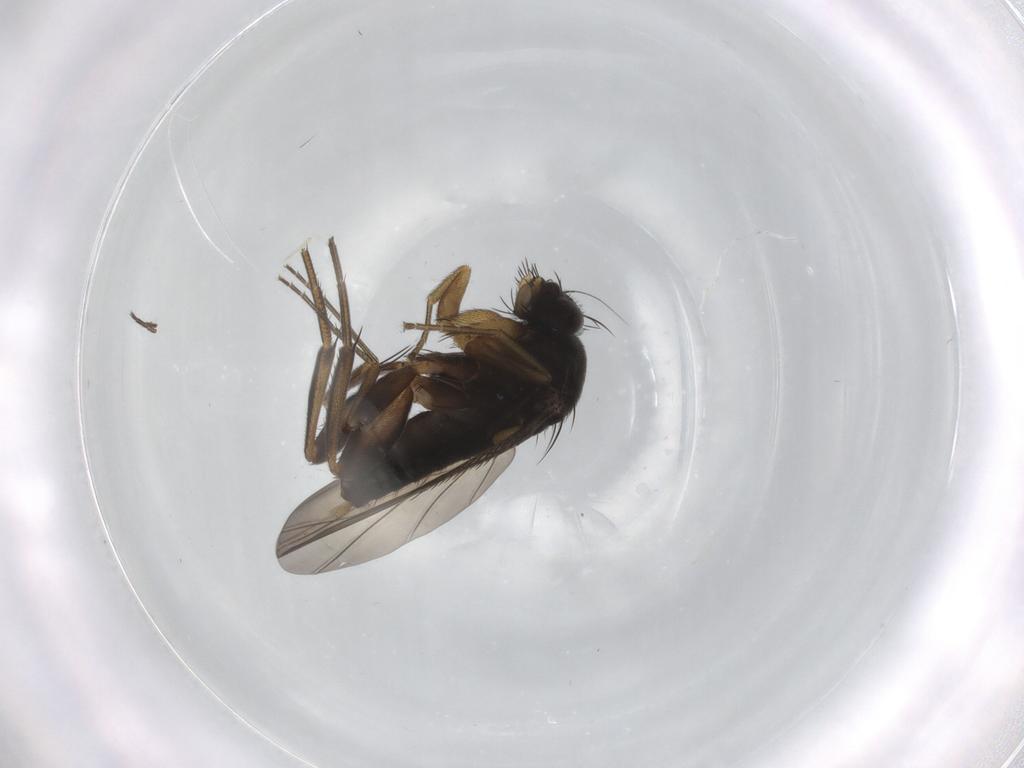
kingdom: Animalia
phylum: Arthropoda
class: Insecta
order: Diptera
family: Phoridae
